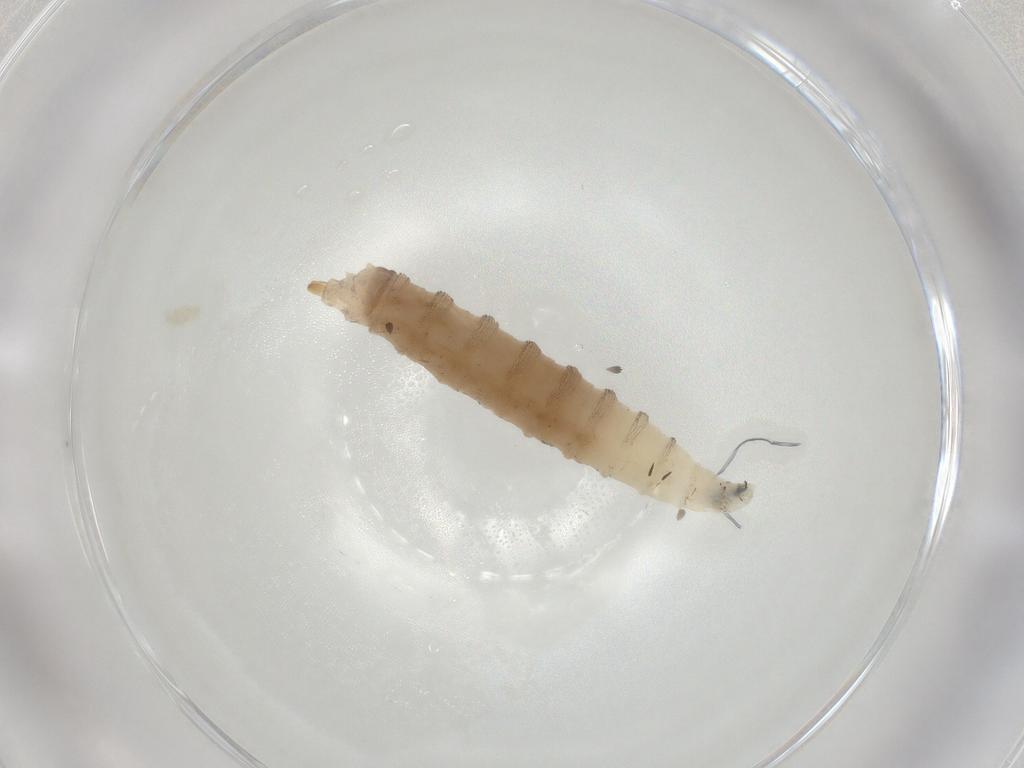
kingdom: Animalia
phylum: Arthropoda
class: Insecta
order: Diptera
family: Drosophilidae
